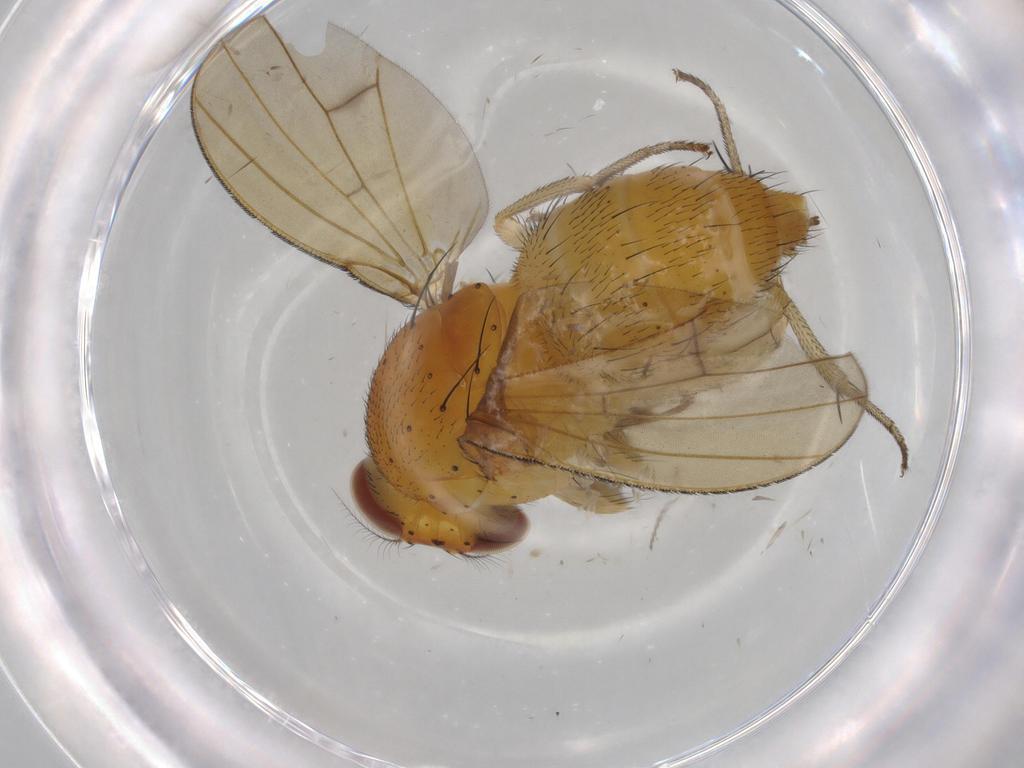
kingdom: Animalia
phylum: Arthropoda
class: Insecta
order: Diptera
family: Lauxaniidae
